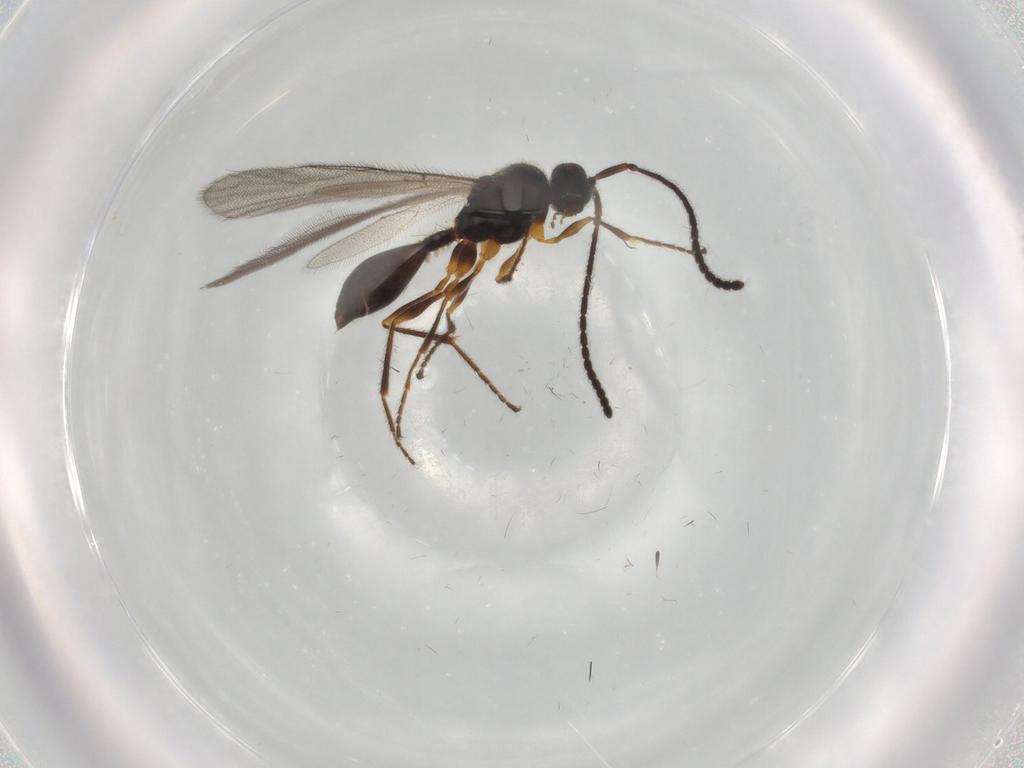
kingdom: Animalia
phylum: Arthropoda
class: Insecta
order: Hymenoptera
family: Diapriidae
